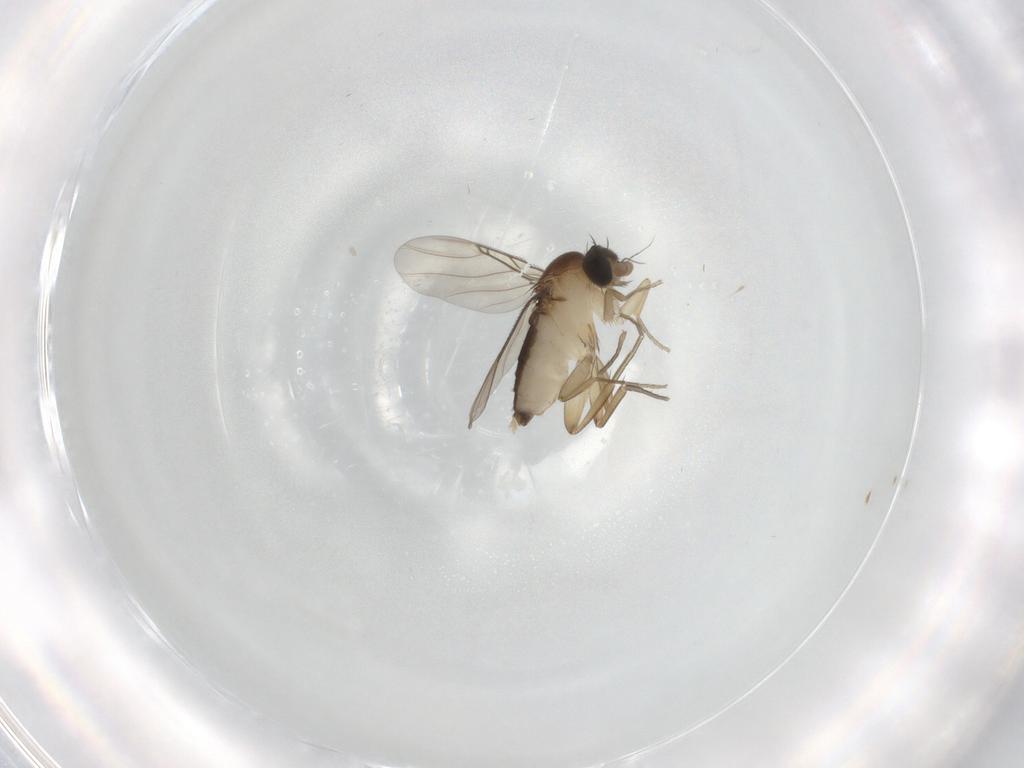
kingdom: Animalia
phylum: Arthropoda
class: Insecta
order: Diptera
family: Phoridae
